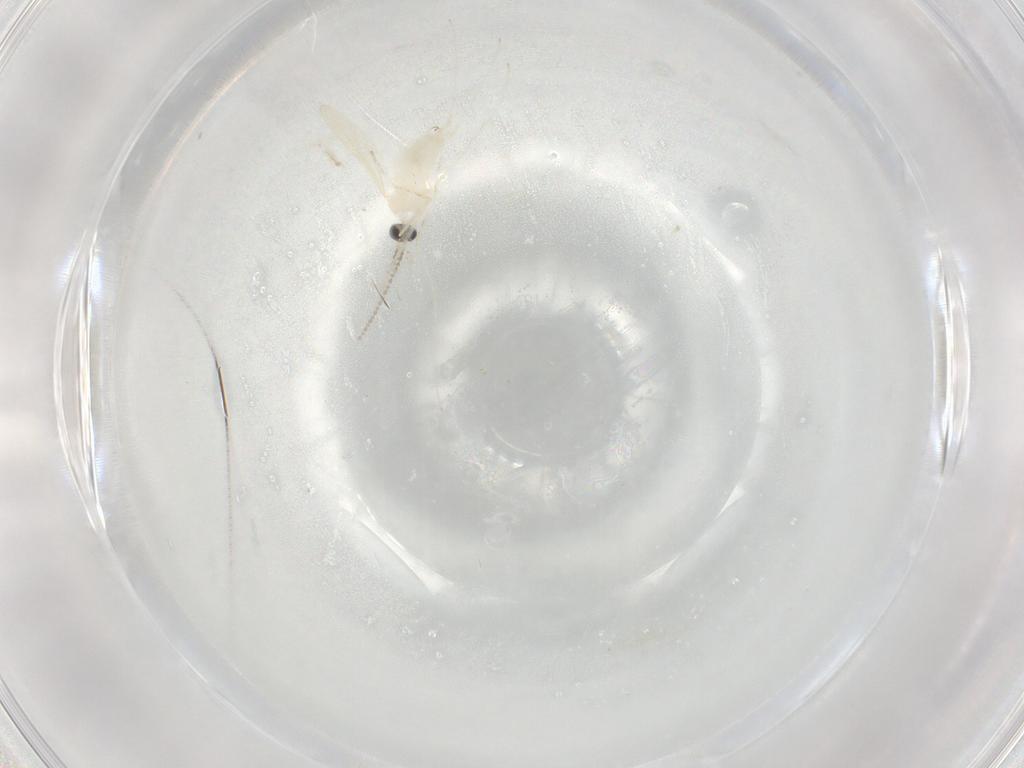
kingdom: Animalia
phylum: Arthropoda
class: Insecta
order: Diptera
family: Cecidomyiidae
